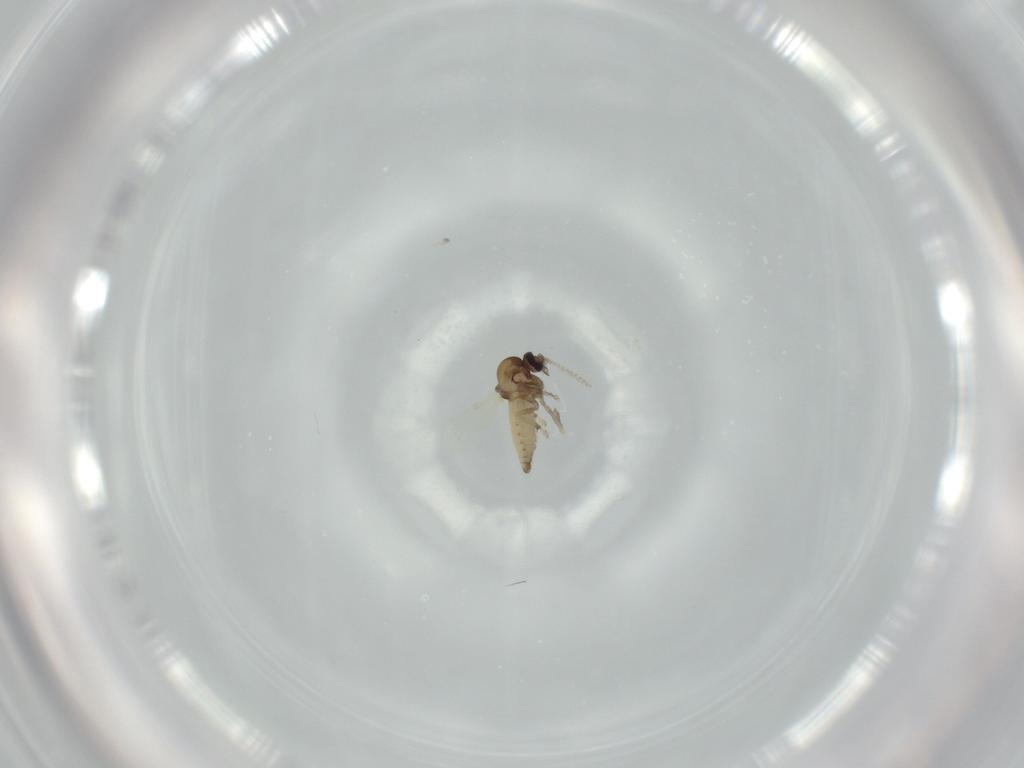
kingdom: Animalia
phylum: Arthropoda
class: Insecta
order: Diptera
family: Ceratopogonidae
